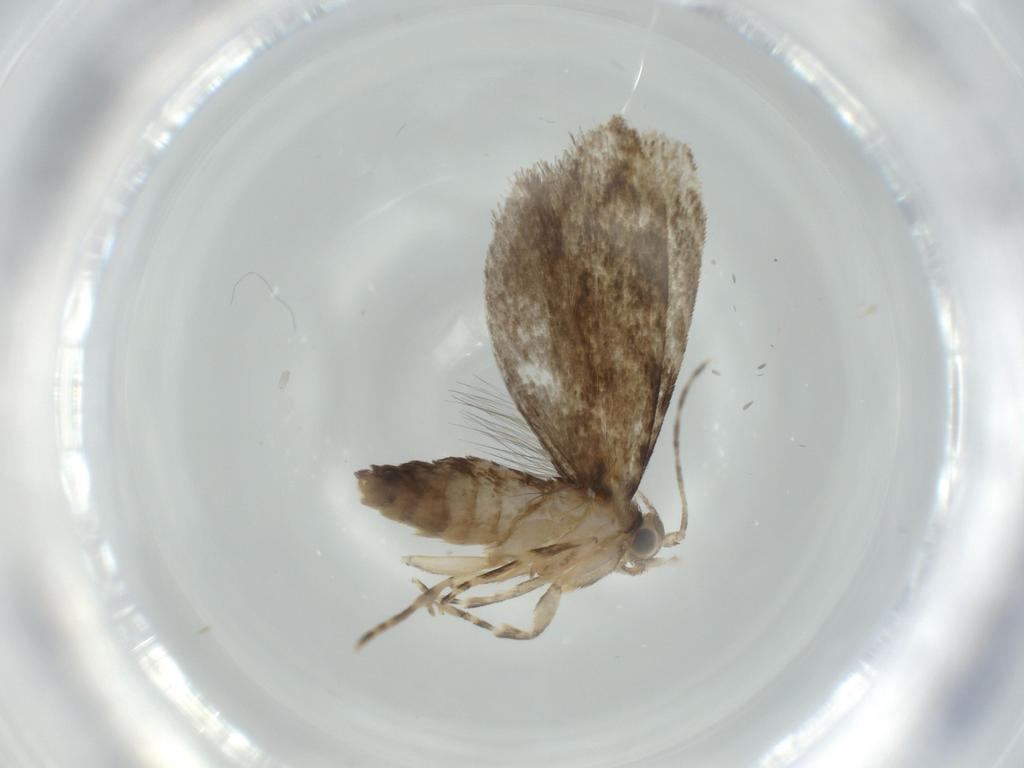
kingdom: Animalia
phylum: Arthropoda
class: Insecta
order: Lepidoptera
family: Tineidae
